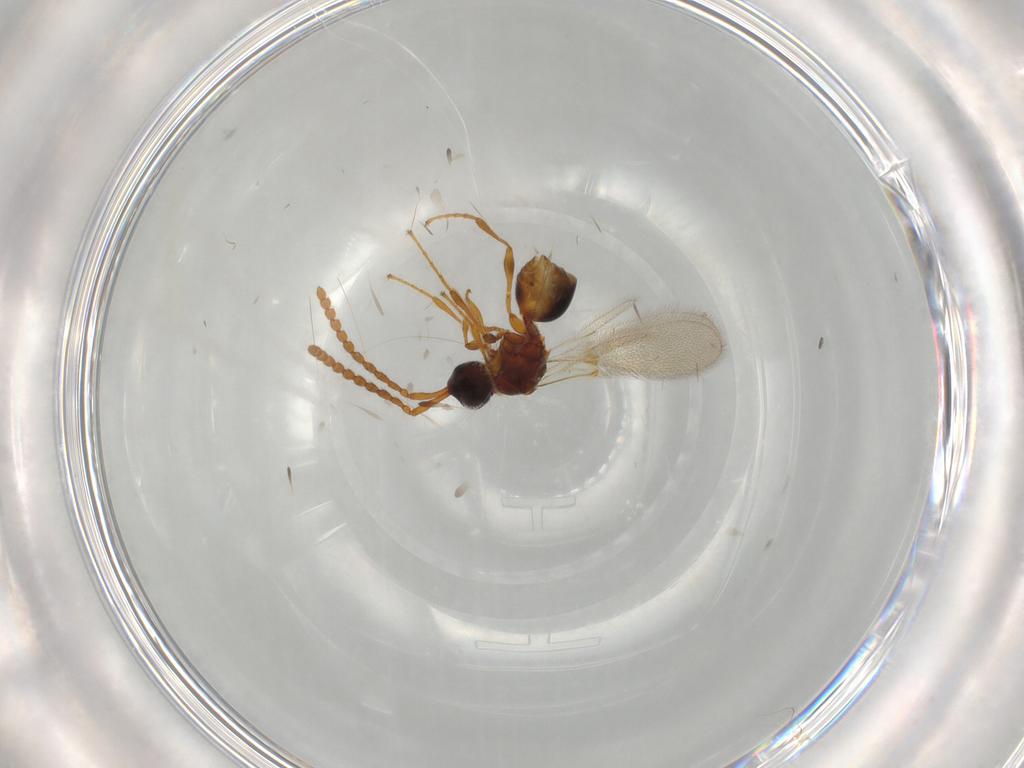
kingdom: Animalia
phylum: Arthropoda
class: Insecta
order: Hymenoptera
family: Diapriidae
